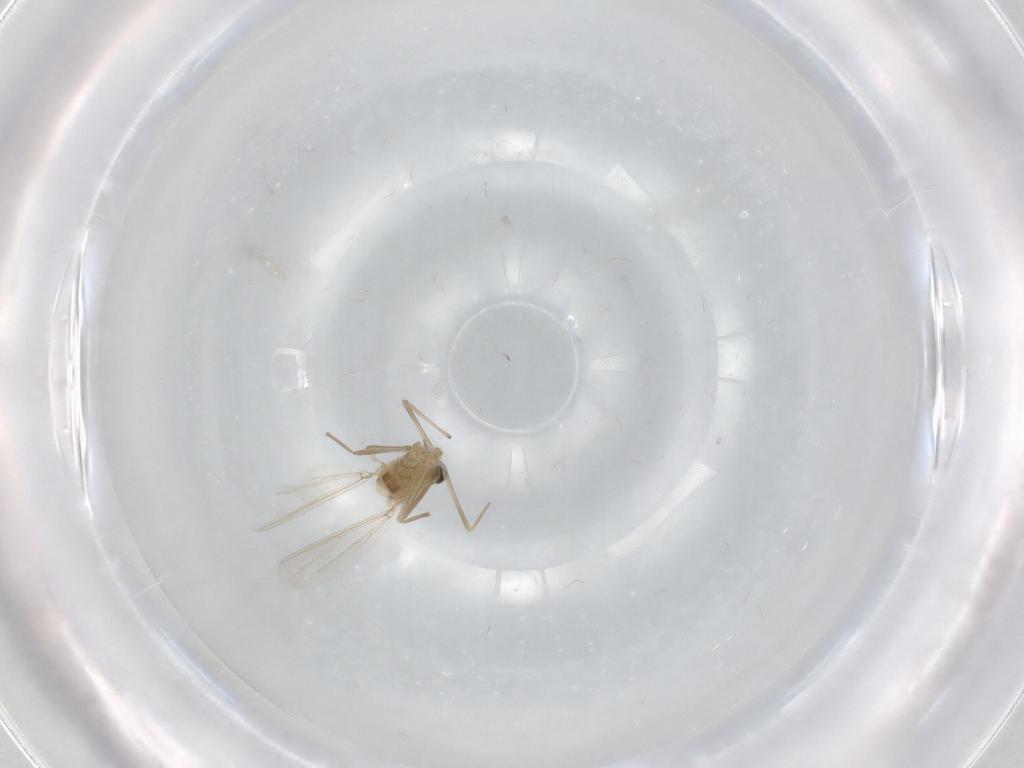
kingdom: Animalia
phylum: Arthropoda
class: Insecta
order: Diptera
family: Chironomidae
